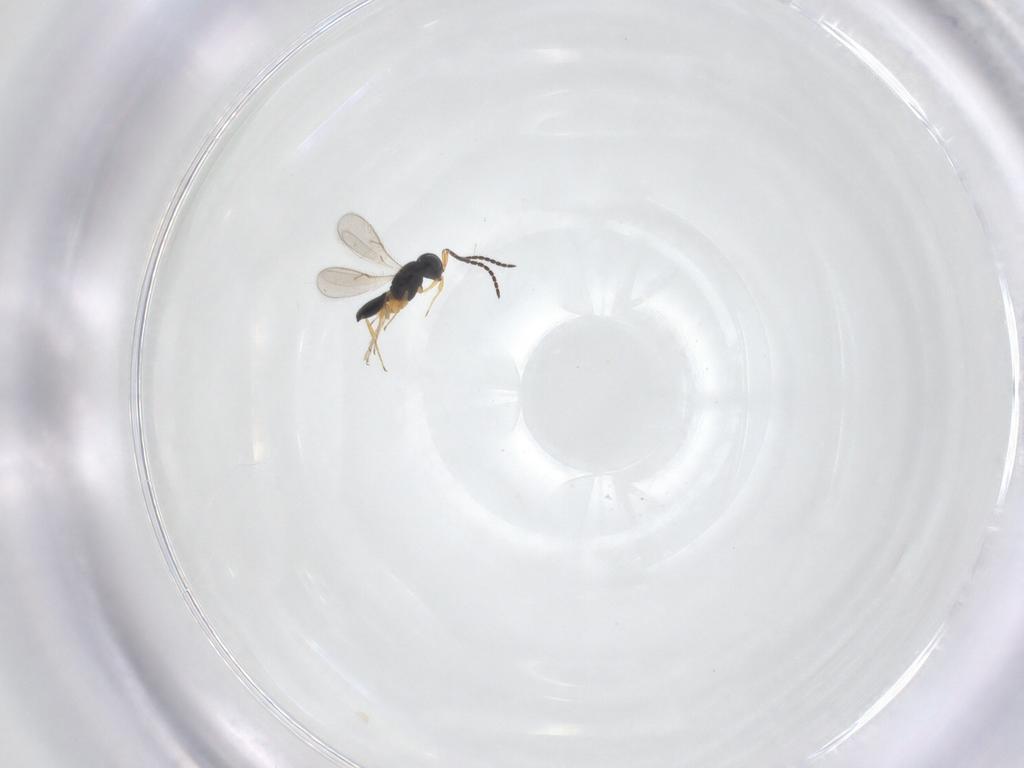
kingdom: Animalia
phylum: Arthropoda
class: Insecta
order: Hymenoptera
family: Scelionidae
